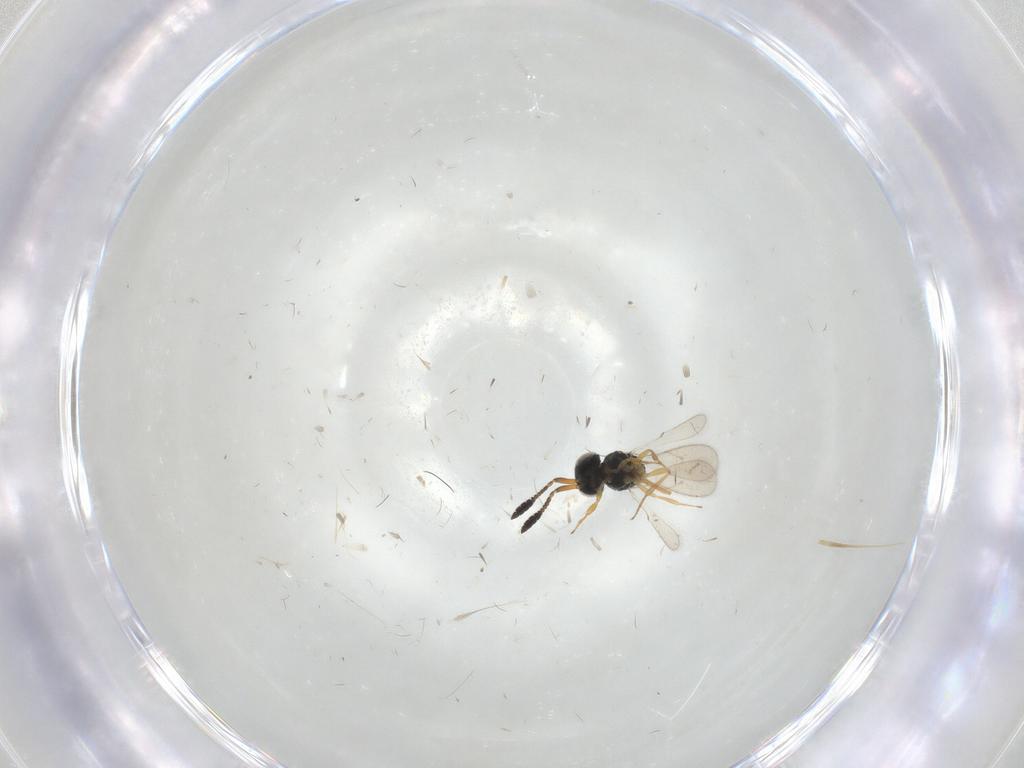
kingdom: Animalia
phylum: Arthropoda
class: Insecta
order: Hymenoptera
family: Scelionidae
